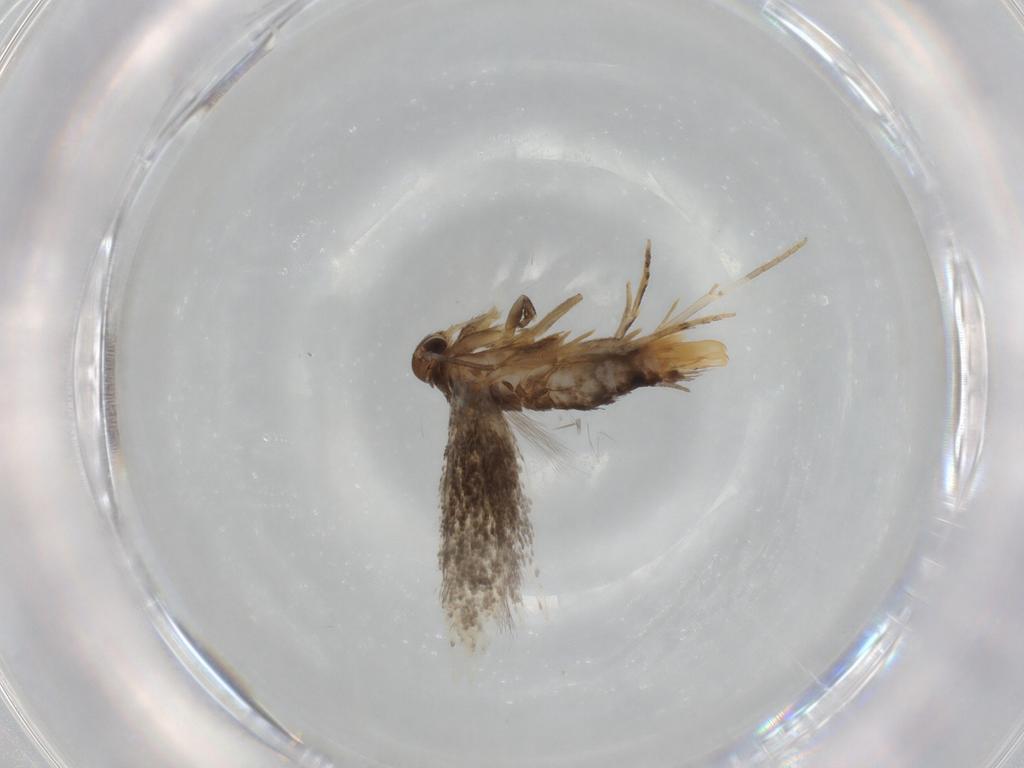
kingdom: Animalia
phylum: Arthropoda
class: Insecta
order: Lepidoptera
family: Elachistidae
